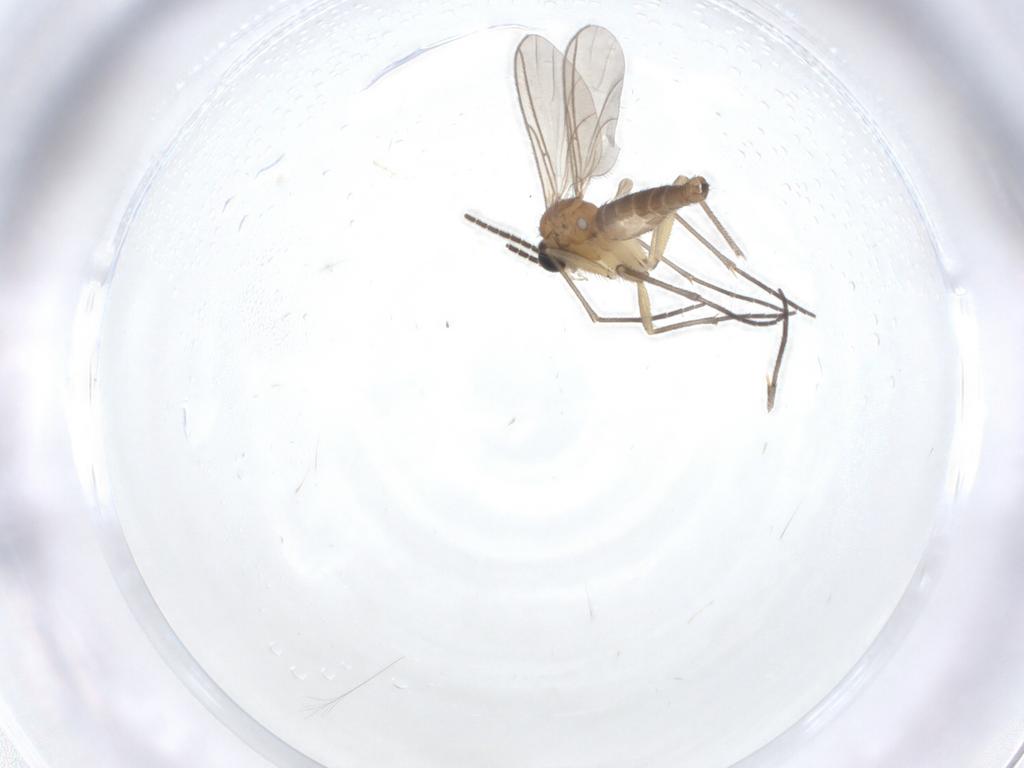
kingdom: Animalia
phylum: Arthropoda
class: Insecta
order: Diptera
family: Sciaridae
